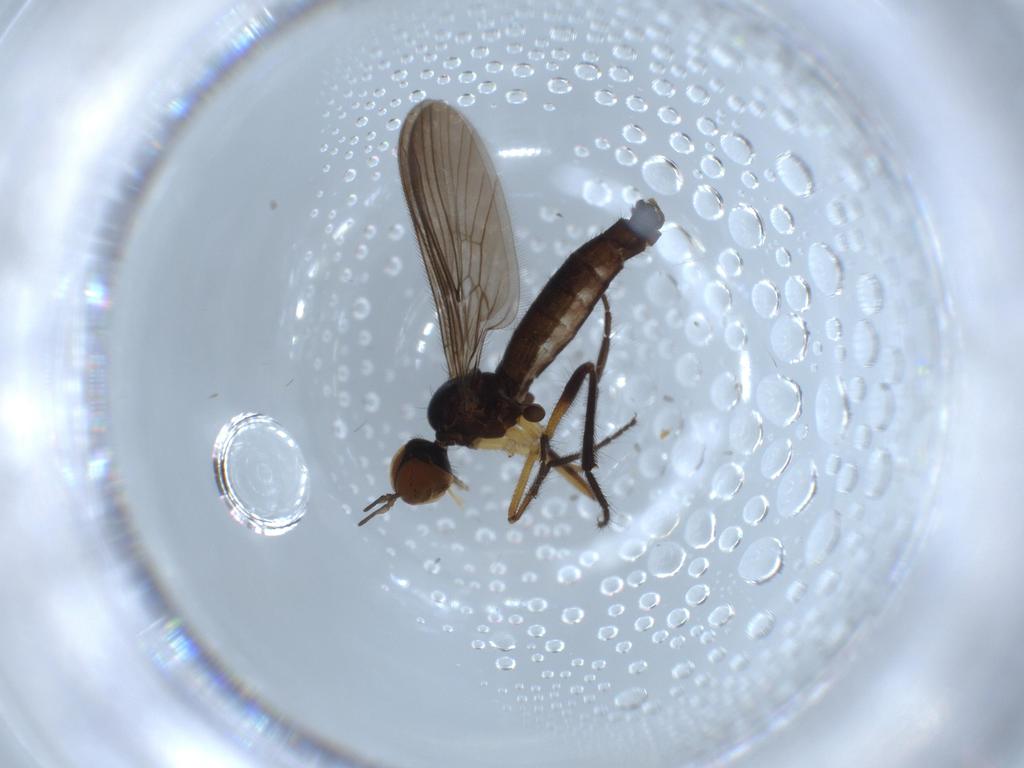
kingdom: Animalia
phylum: Arthropoda
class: Insecta
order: Diptera
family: Empididae
